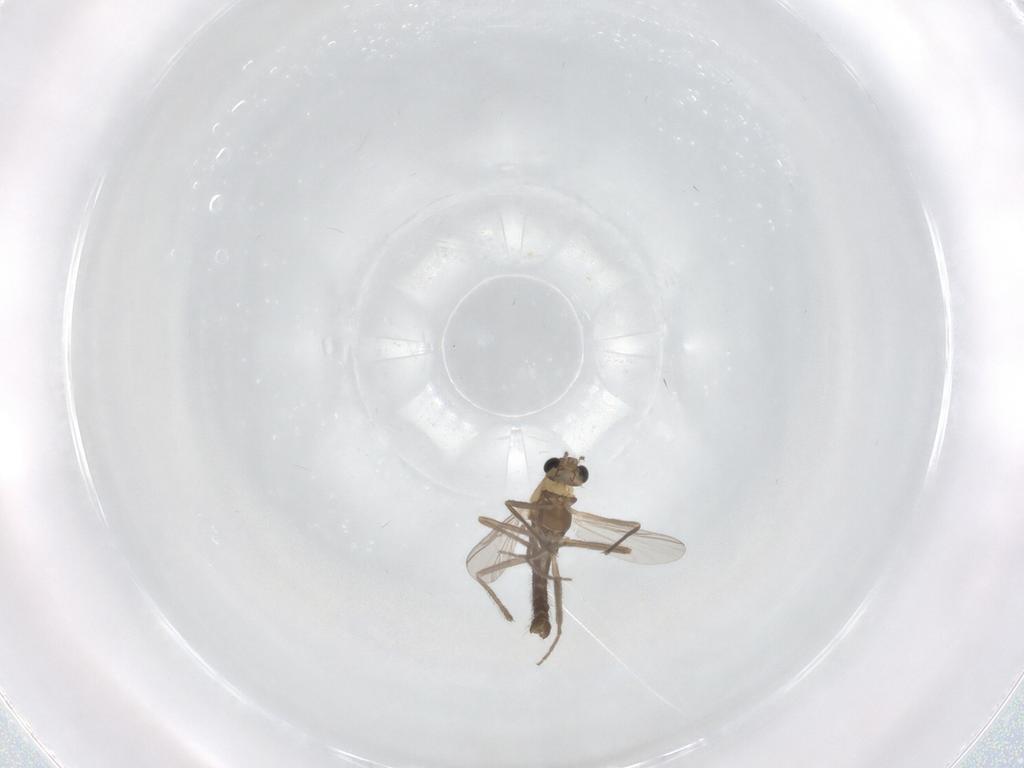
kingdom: Animalia
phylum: Arthropoda
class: Insecta
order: Diptera
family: Chironomidae
